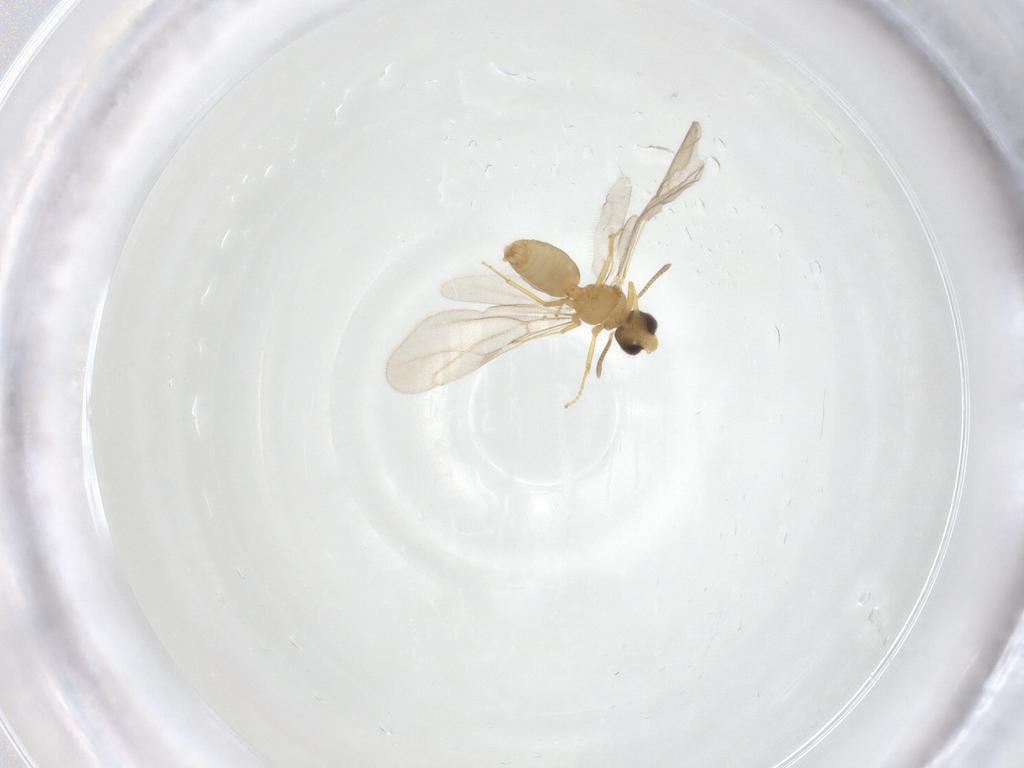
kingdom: Animalia
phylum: Arthropoda
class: Insecta
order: Hymenoptera
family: Formicidae
